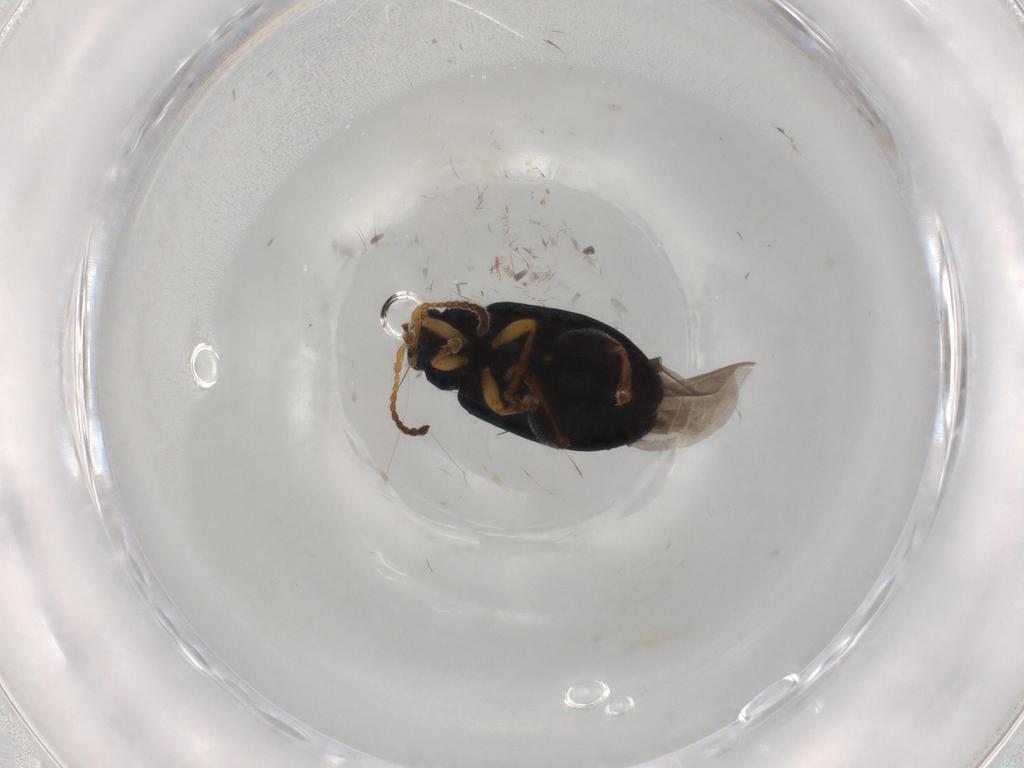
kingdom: Animalia
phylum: Arthropoda
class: Insecta
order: Coleoptera
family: Chrysomelidae
